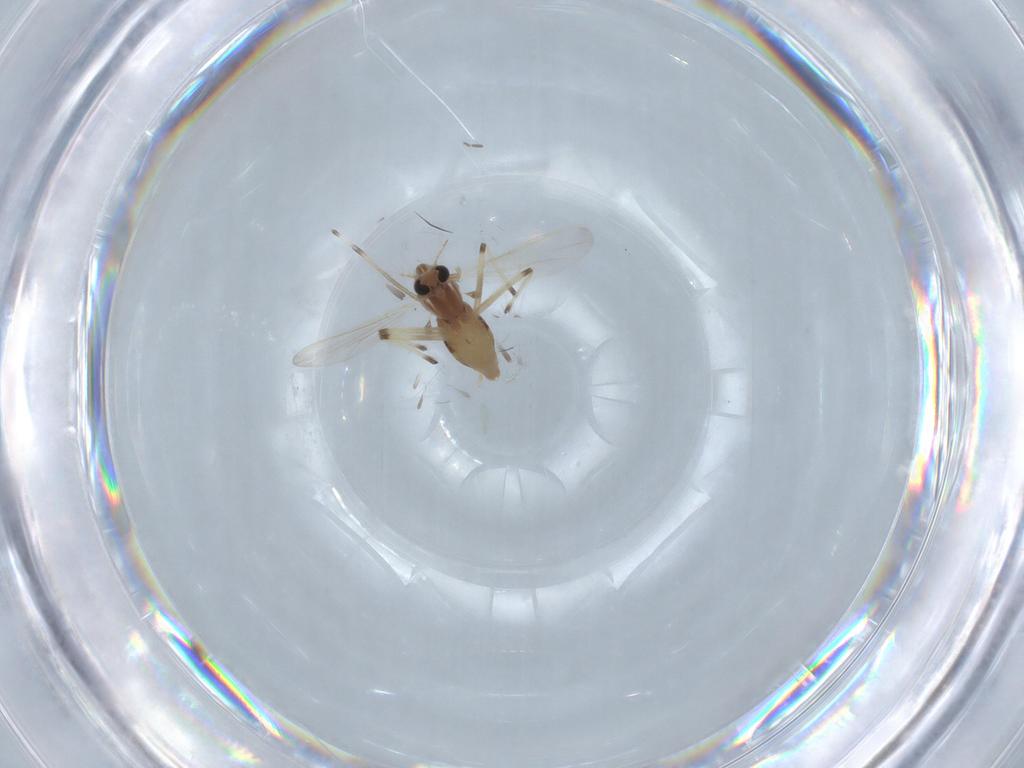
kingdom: Animalia
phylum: Arthropoda
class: Insecta
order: Diptera
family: Chironomidae
